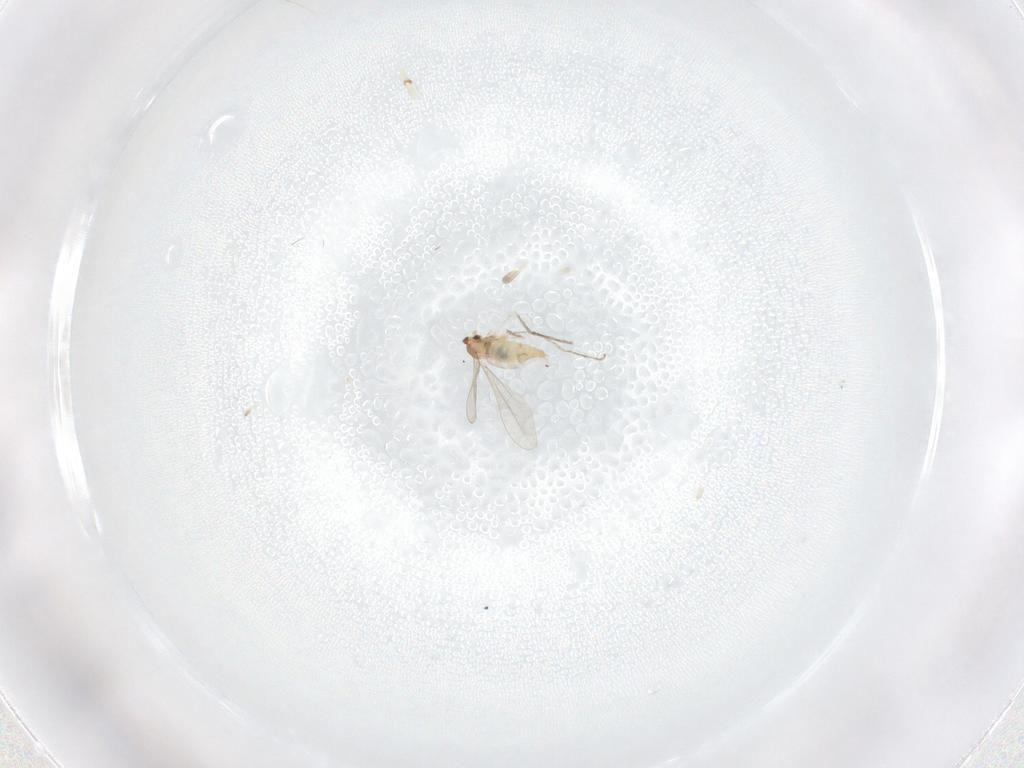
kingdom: Animalia
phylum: Arthropoda
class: Insecta
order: Diptera
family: Cecidomyiidae
